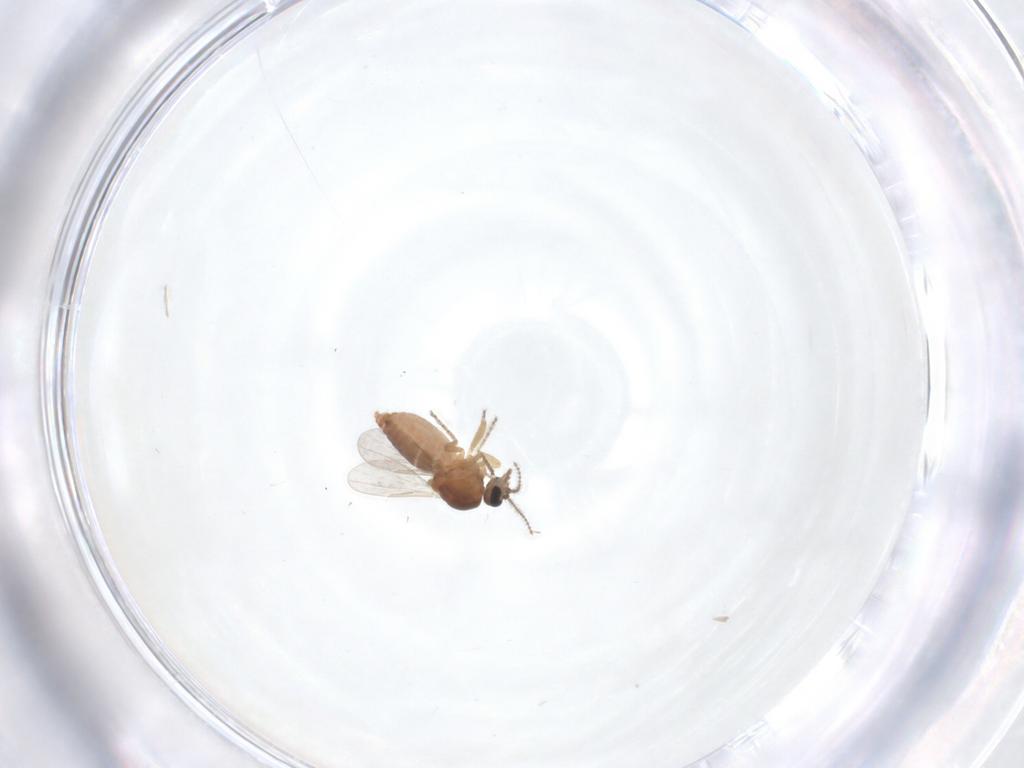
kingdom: Animalia
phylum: Arthropoda
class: Insecta
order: Diptera
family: Ceratopogonidae
